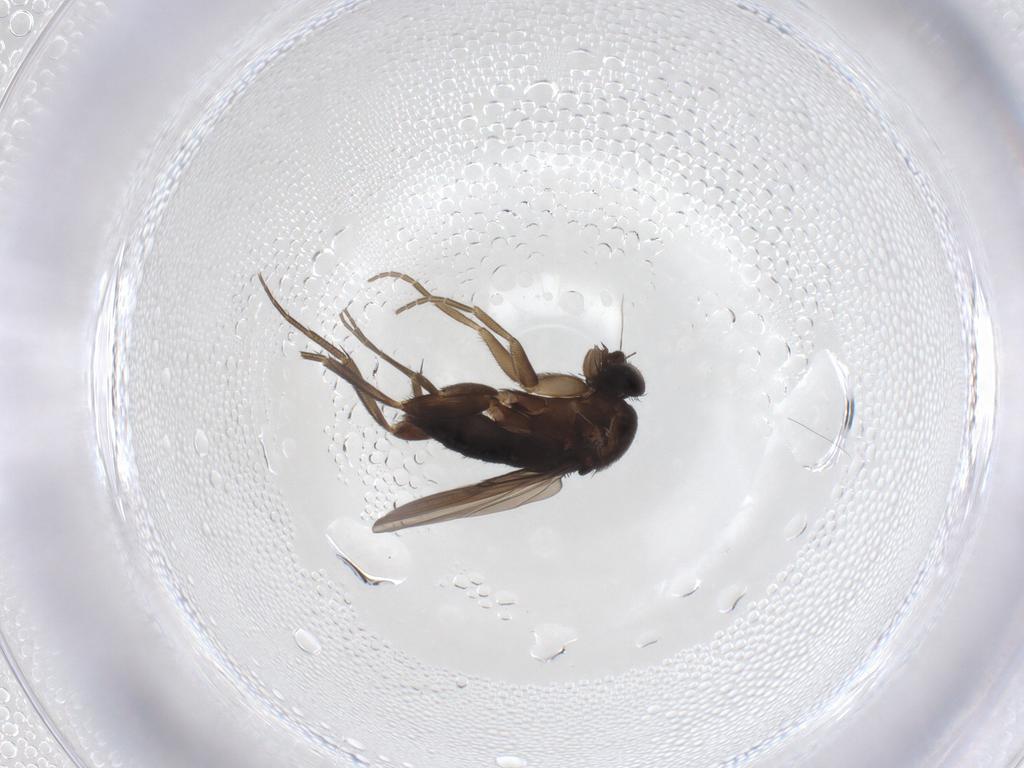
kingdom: Animalia
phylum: Arthropoda
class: Insecta
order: Diptera
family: Phoridae
